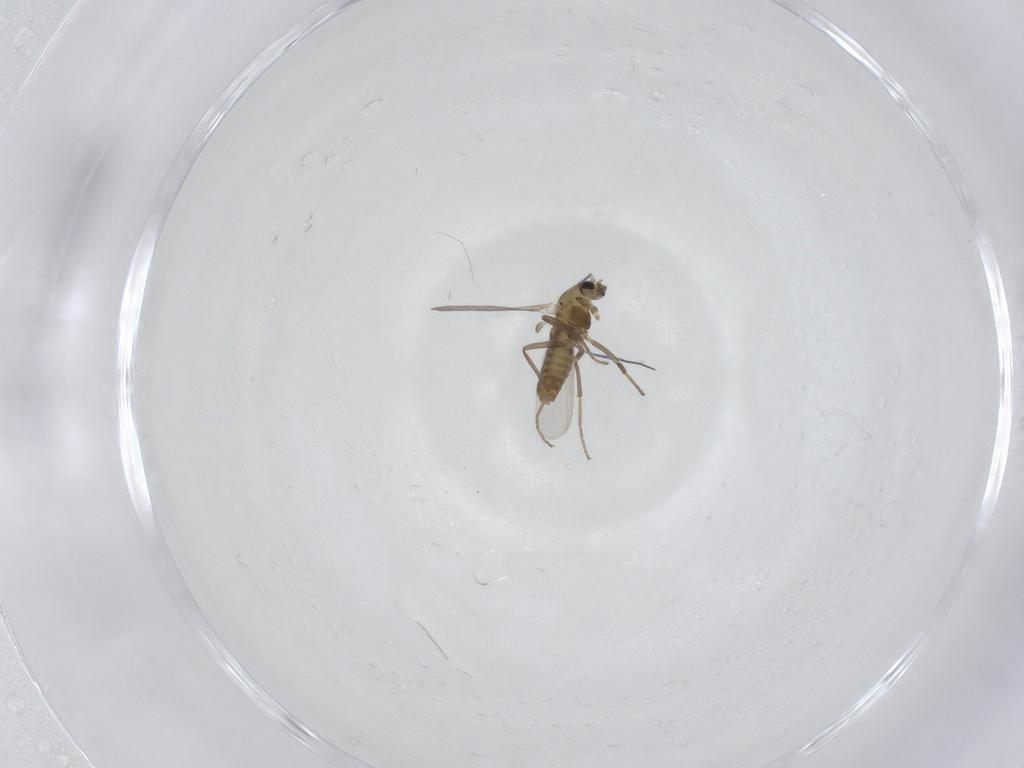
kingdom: Animalia
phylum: Arthropoda
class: Insecta
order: Diptera
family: Chironomidae
